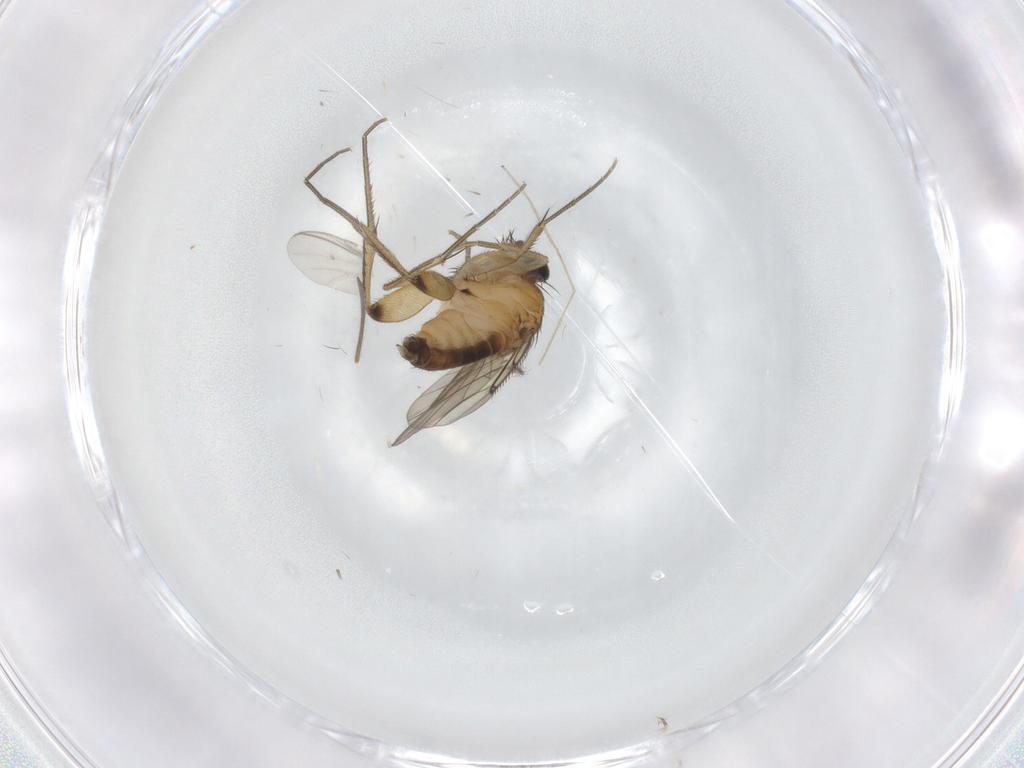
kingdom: Animalia
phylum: Arthropoda
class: Insecta
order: Diptera
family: Phoridae
